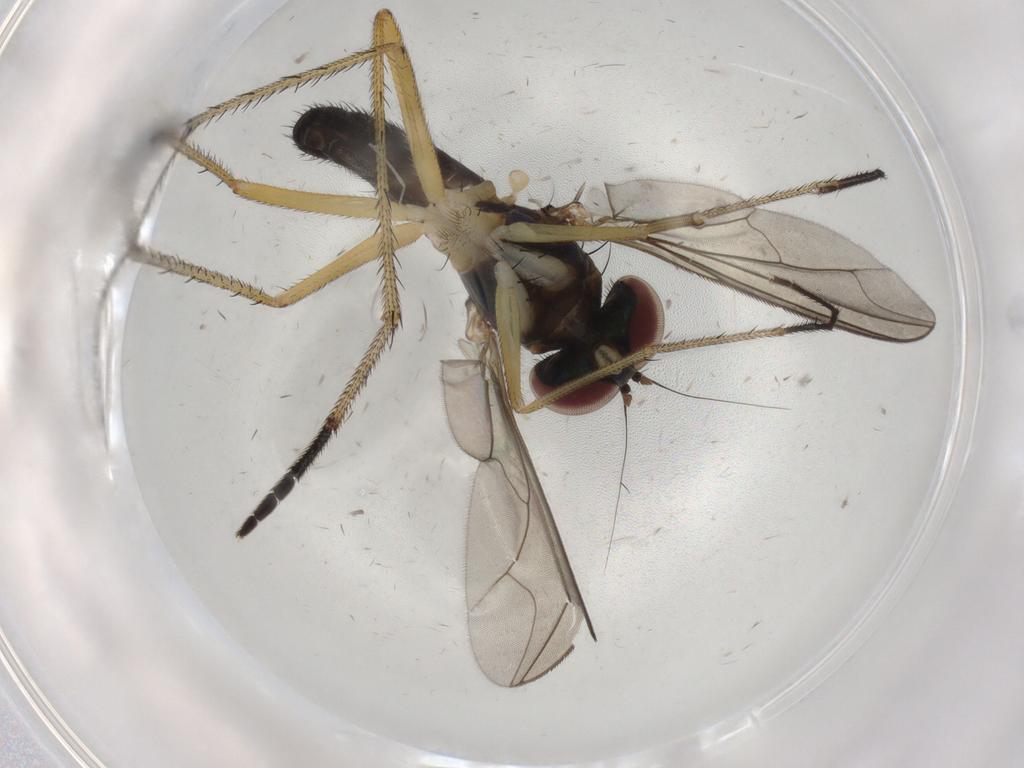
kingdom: Animalia
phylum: Arthropoda
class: Insecta
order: Diptera
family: Dolichopodidae
